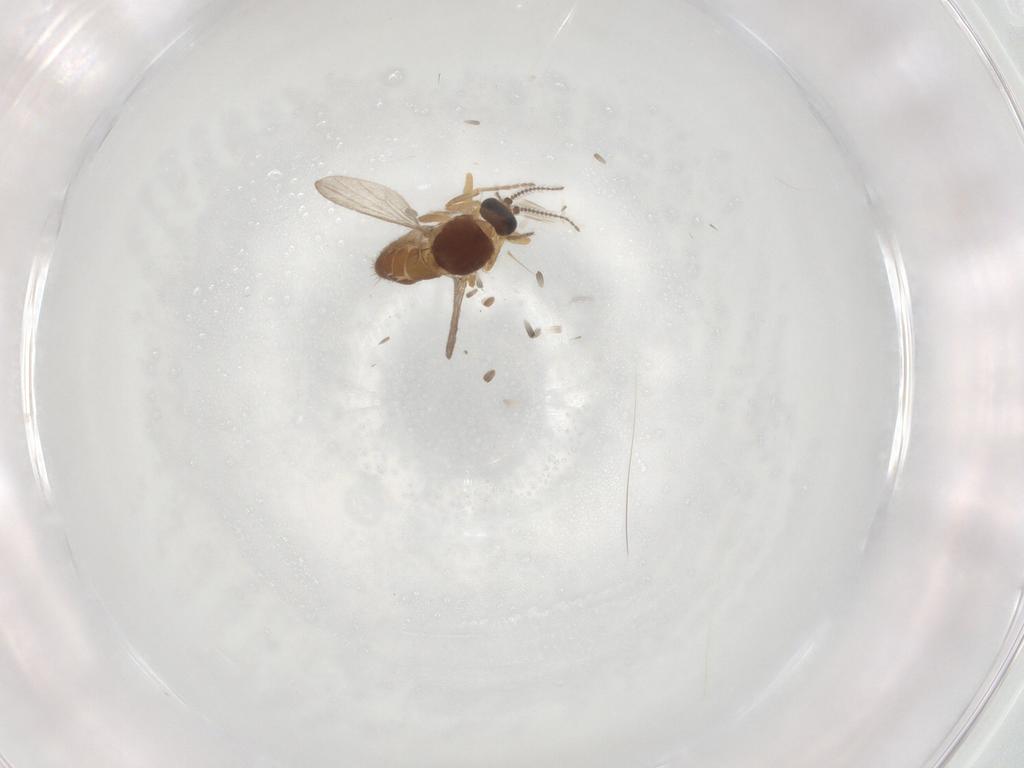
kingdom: Animalia
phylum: Arthropoda
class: Insecta
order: Diptera
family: Ceratopogonidae
